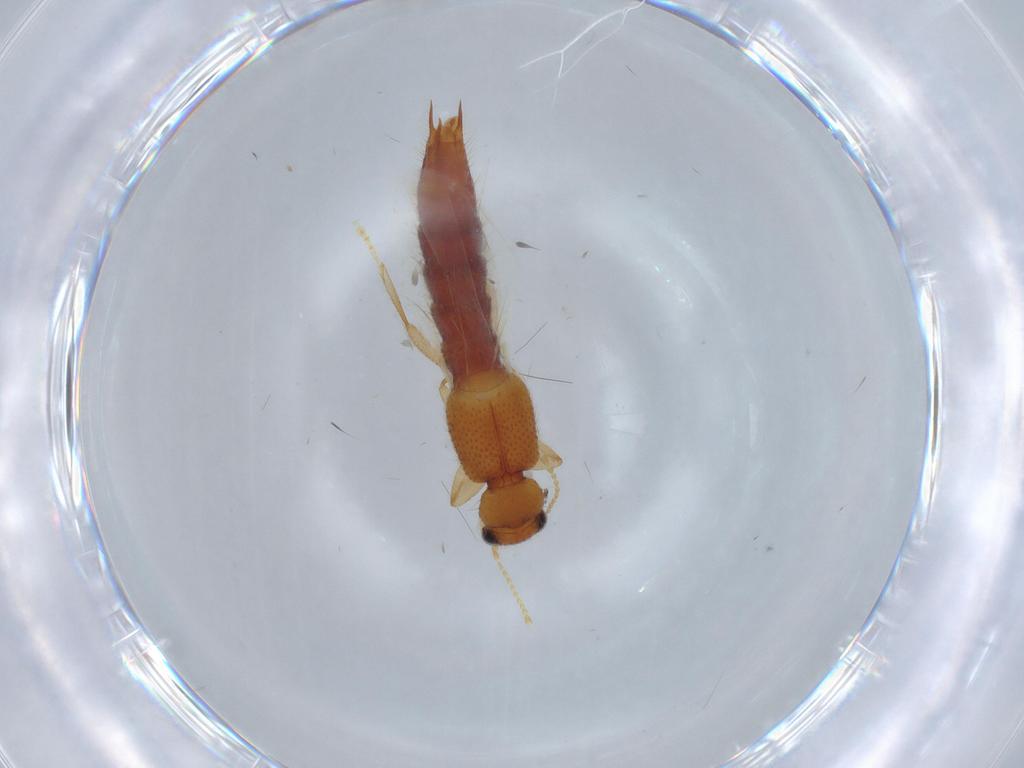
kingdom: Animalia
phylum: Arthropoda
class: Insecta
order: Coleoptera
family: Staphylinidae
